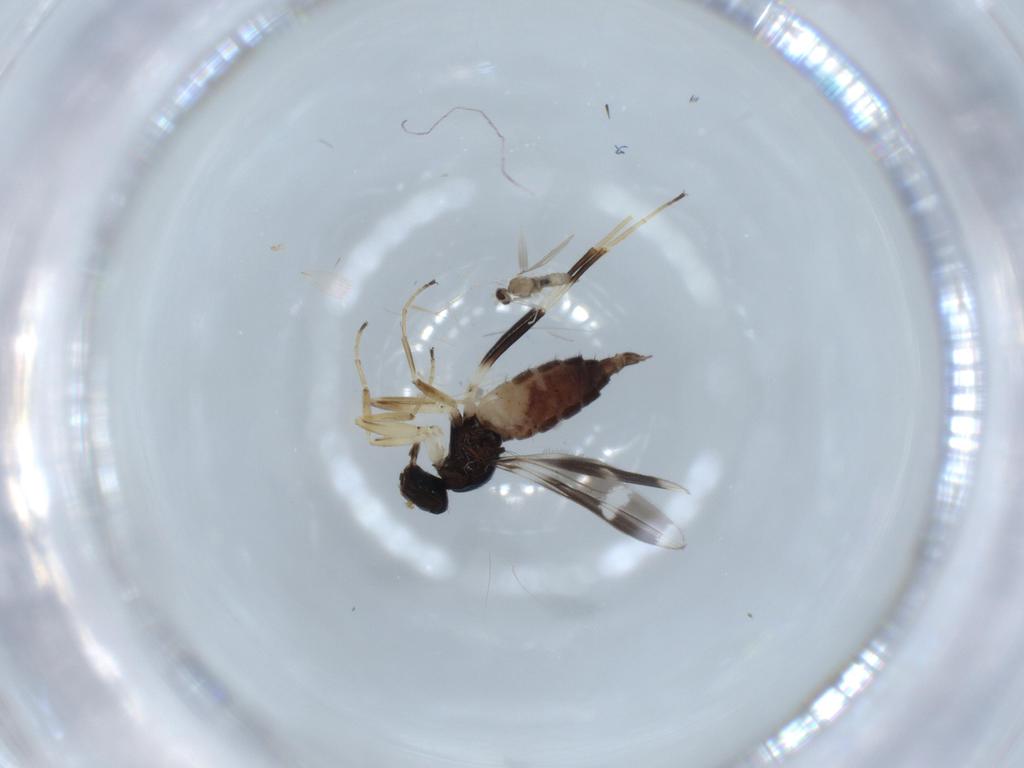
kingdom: Animalia
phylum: Arthropoda
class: Insecta
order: Diptera
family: Hybotidae
